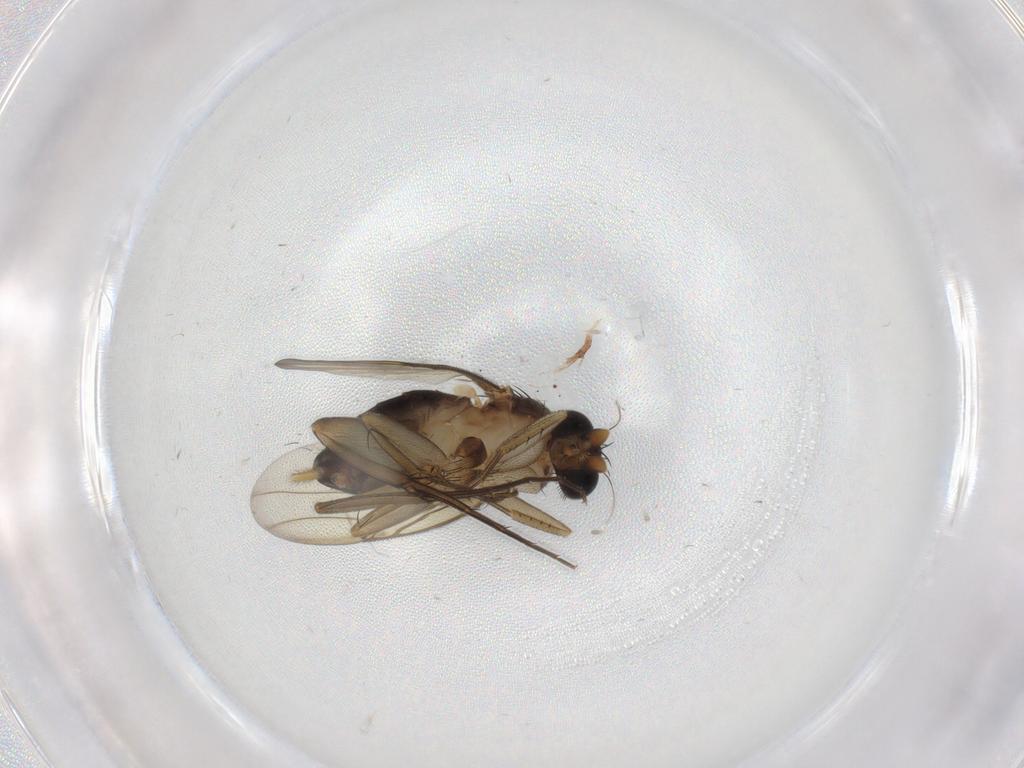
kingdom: Animalia
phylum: Arthropoda
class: Insecta
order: Diptera
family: Phoridae
